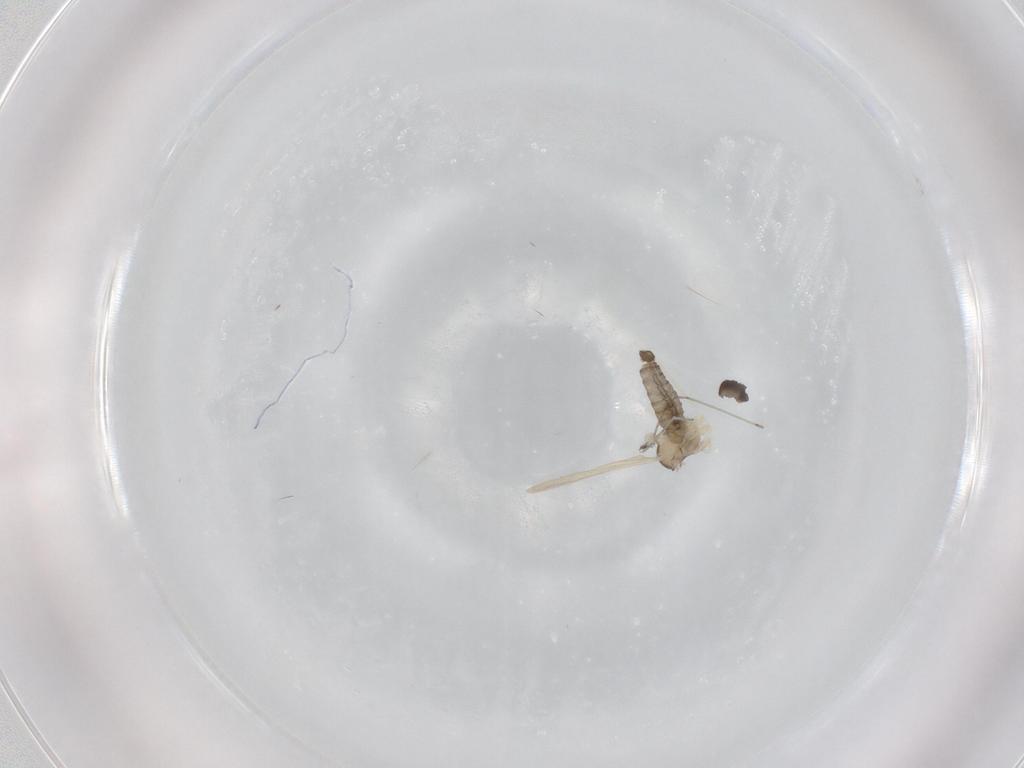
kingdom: Animalia
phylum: Arthropoda
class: Insecta
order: Diptera
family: Sciaridae
